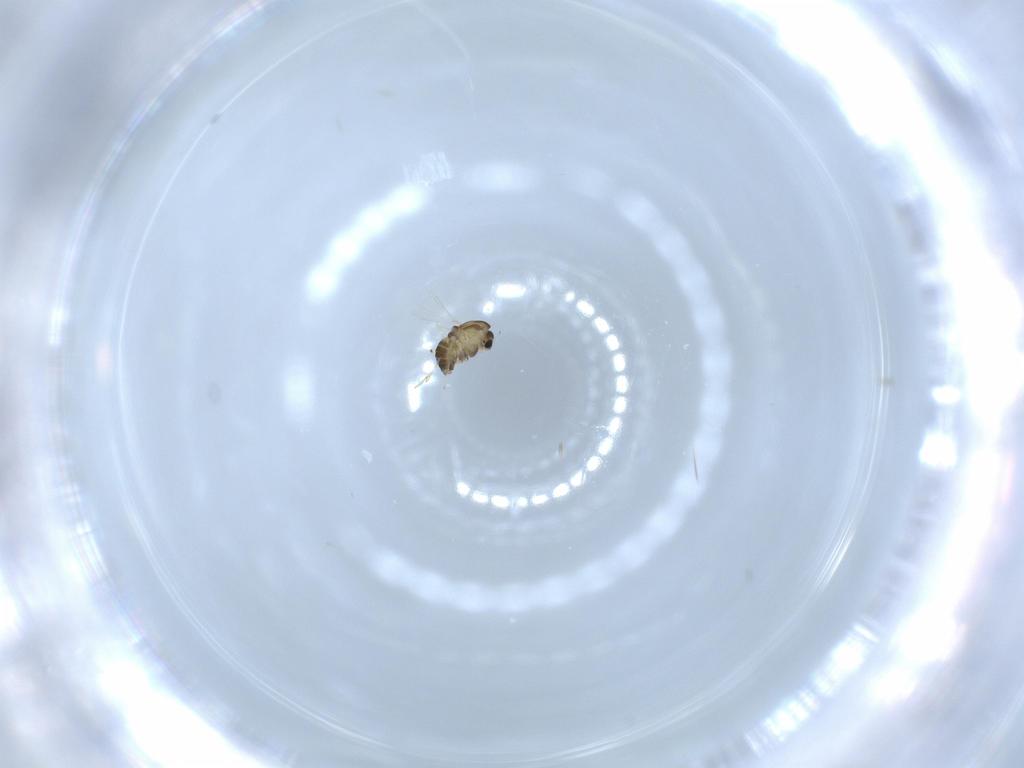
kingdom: Animalia
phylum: Arthropoda
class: Insecta
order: Diptera
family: Chironomidae
